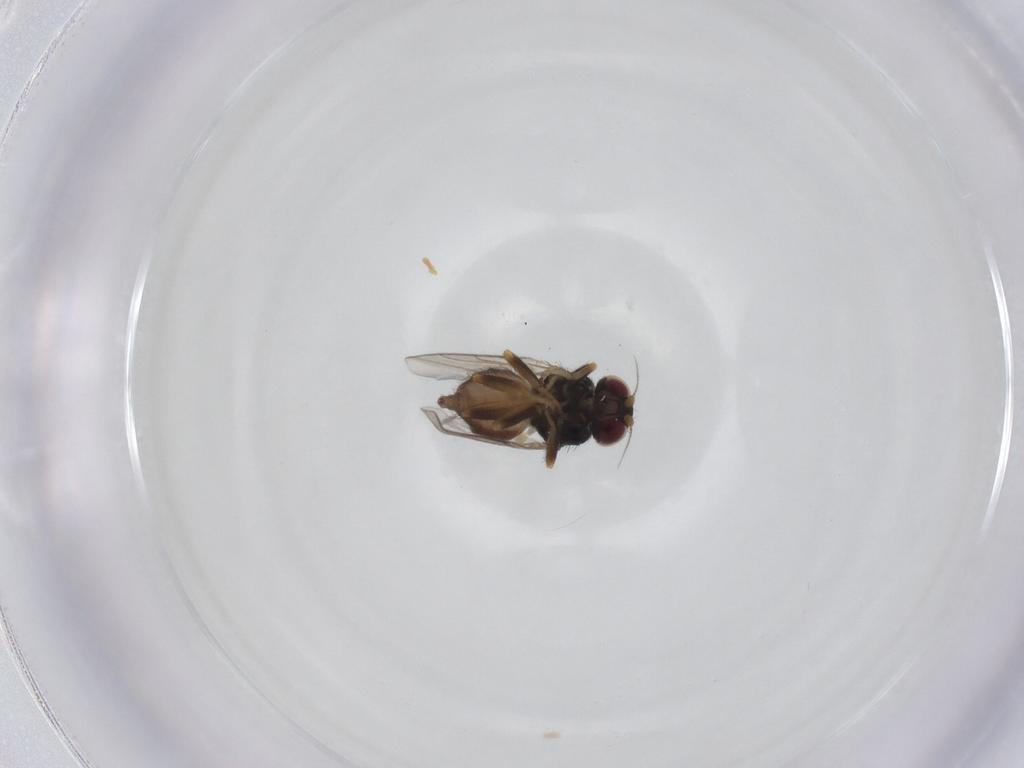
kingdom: Animalia
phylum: Arthropoda
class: Insecta
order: Diptera
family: Chloropidae
